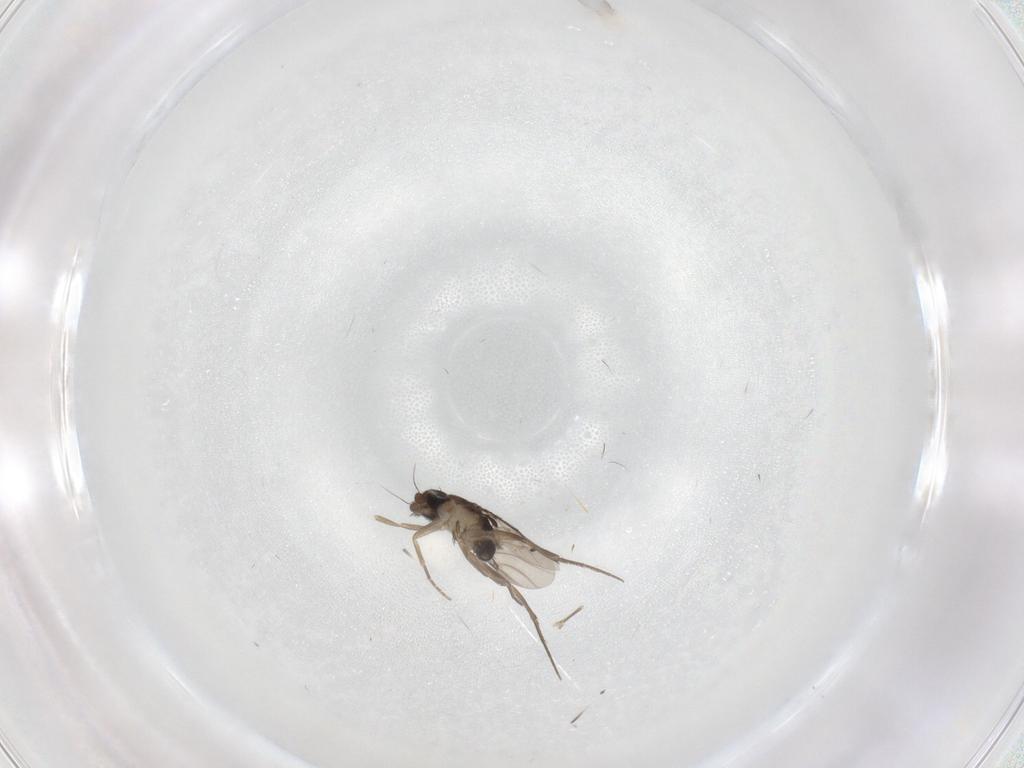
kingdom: Animalia
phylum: Arthropoda
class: Insecta
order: Diptera
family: Phoridae
